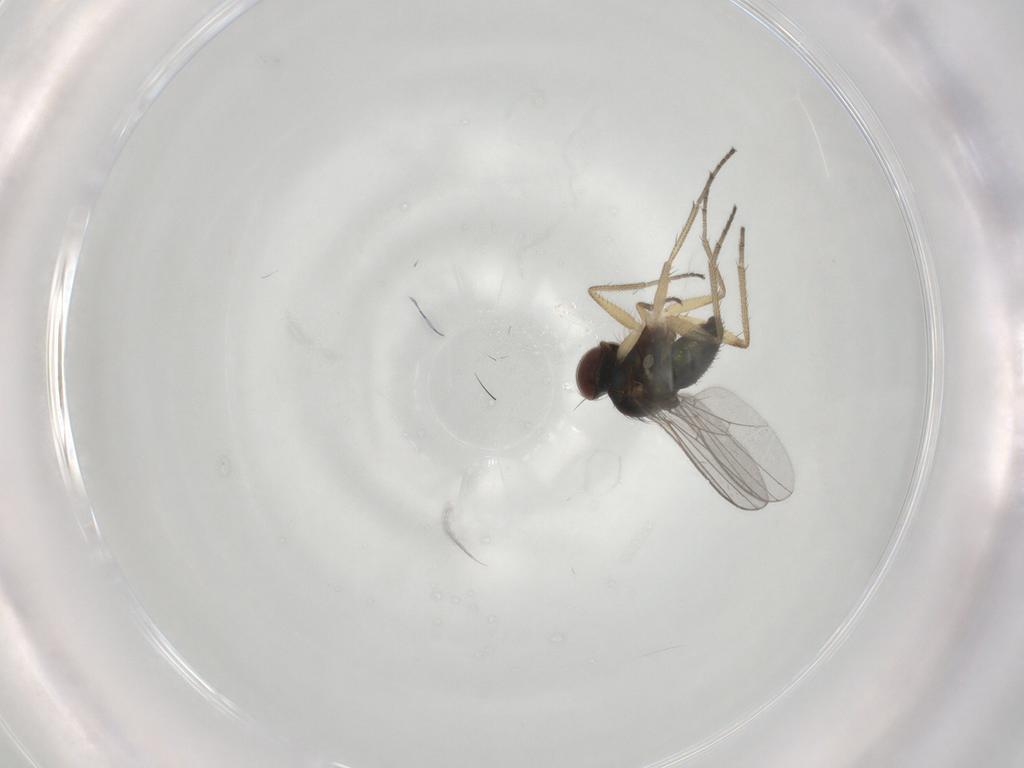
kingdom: Animalia
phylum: Arthropoda
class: Insecta
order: Diptera
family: Dolichopodidae
